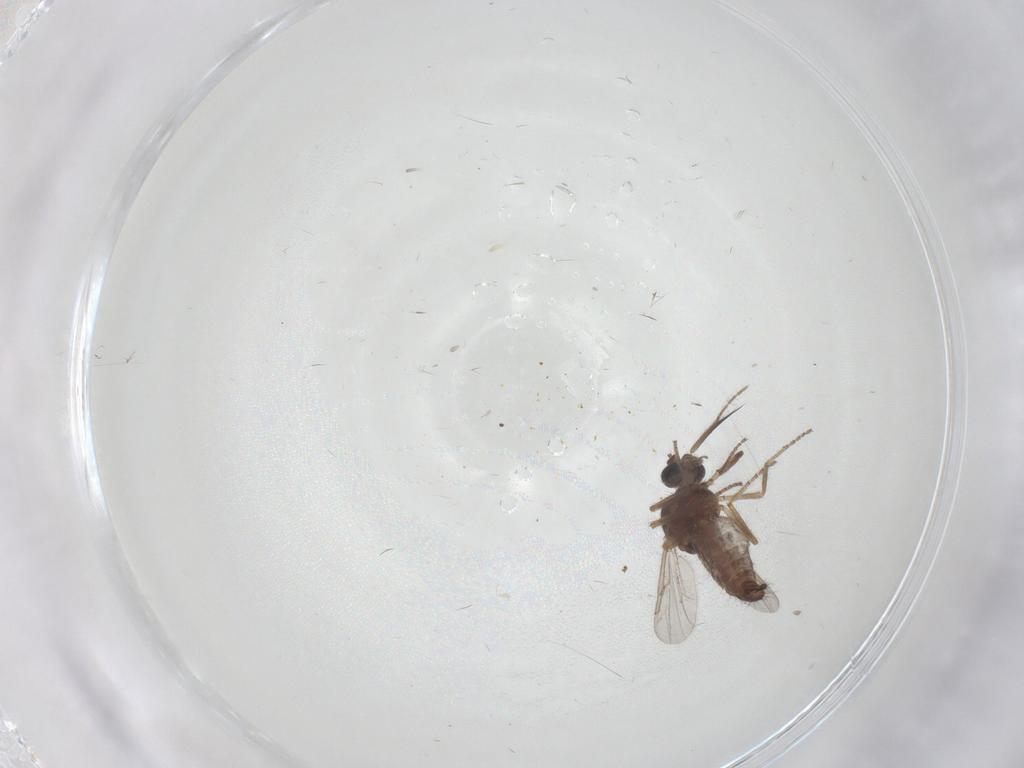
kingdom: Animalia
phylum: Arthropoda
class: Insecta
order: Diptera
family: Ceratopogonidae
